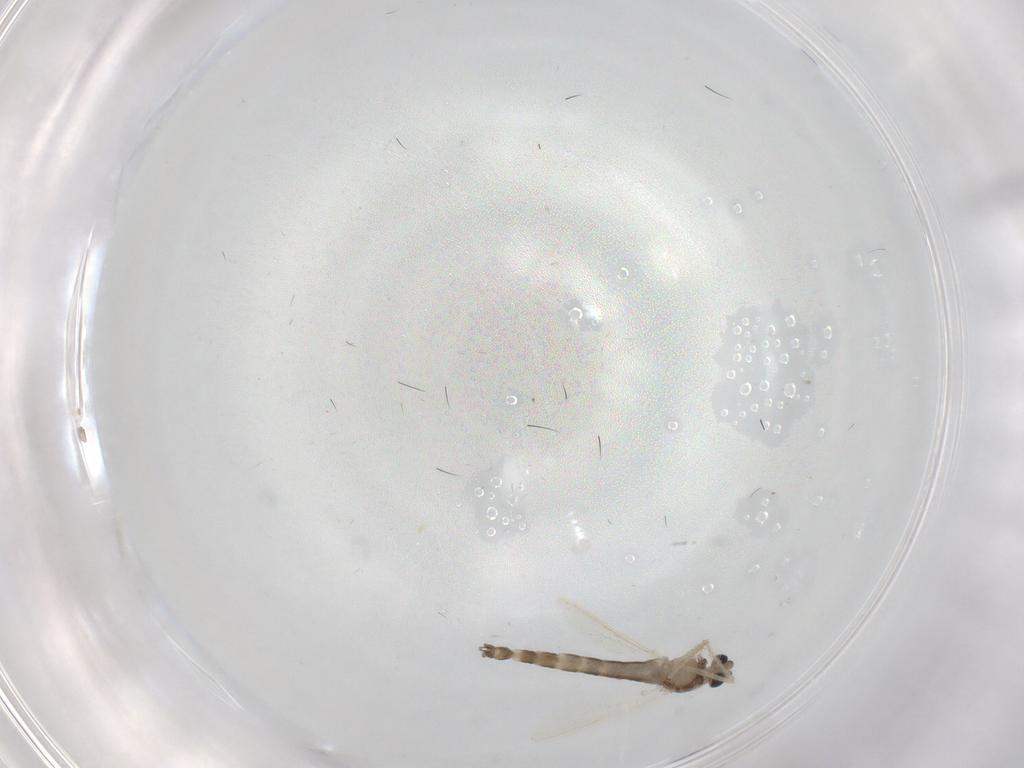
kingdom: Animalia
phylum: Arthropoda
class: Insecta
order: Diptera
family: Chironomidae
